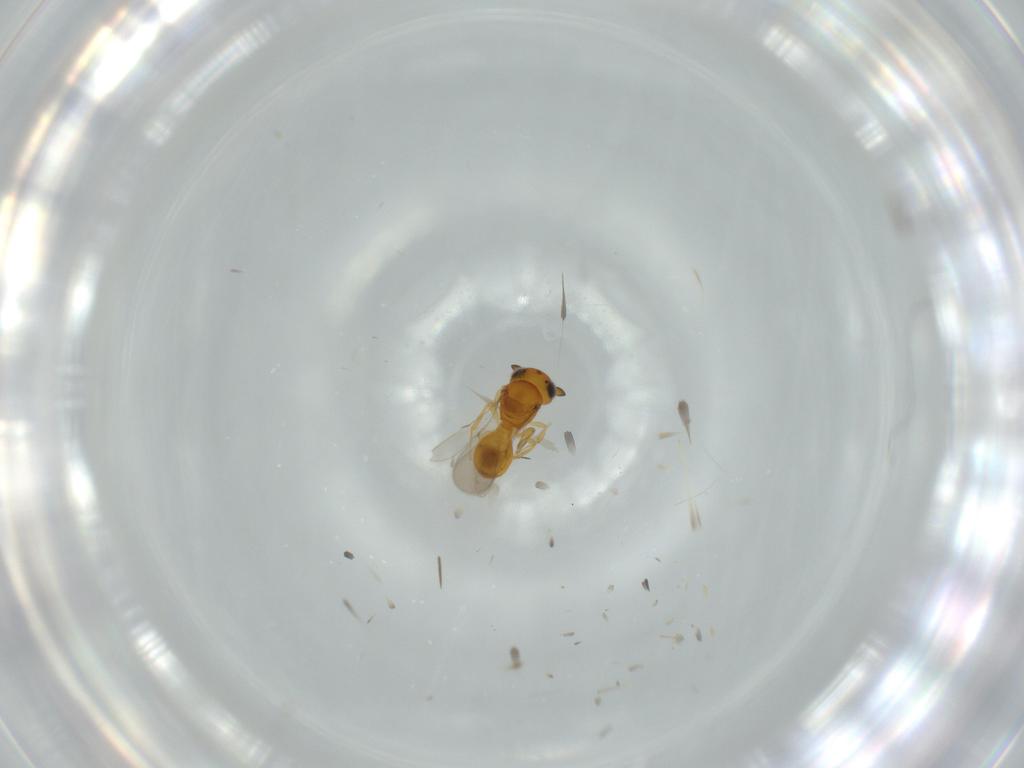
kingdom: Animalia
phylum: Arthropoda
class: Insecta
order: Hymenoptera
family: Scelionidae
